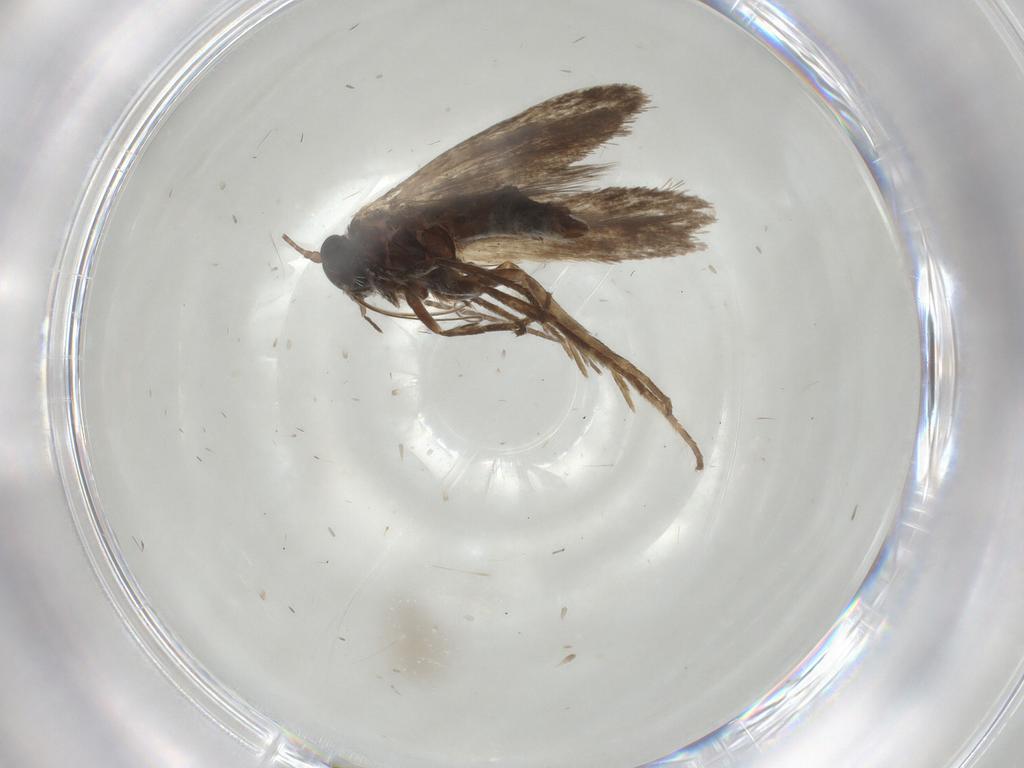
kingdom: Animalia
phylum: Arthropoda
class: Insecta
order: Lepidoptera
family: Adelidae
